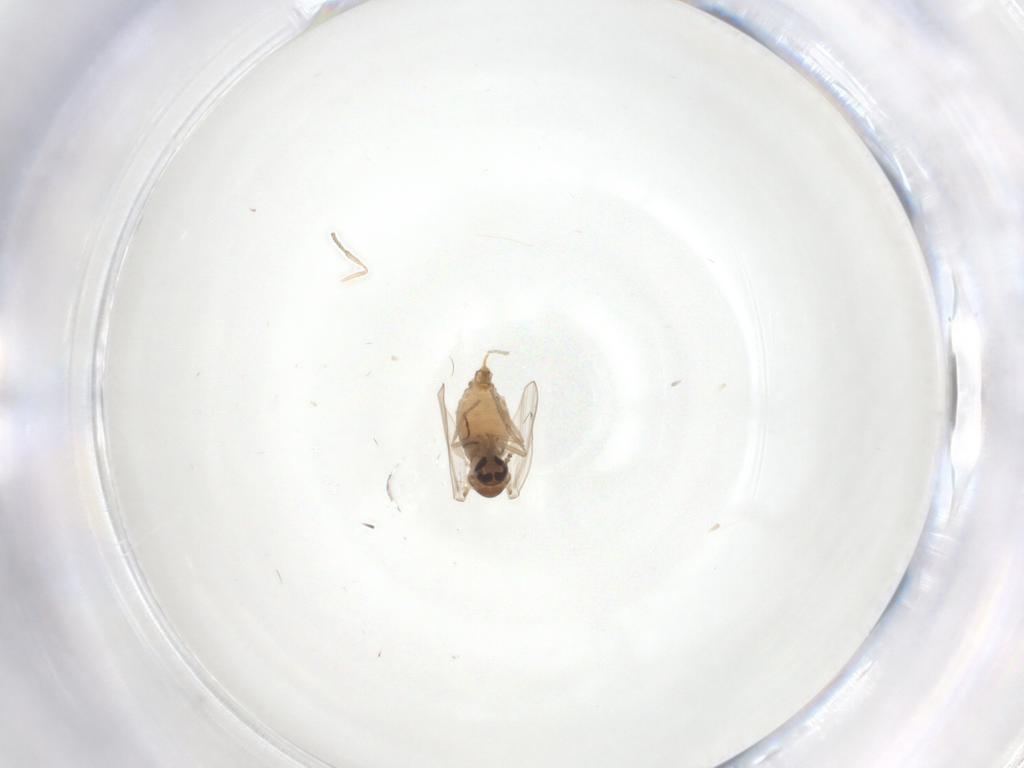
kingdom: Animalia
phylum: Arthropoda
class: Insecta
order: Diptera
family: Psychodidae
